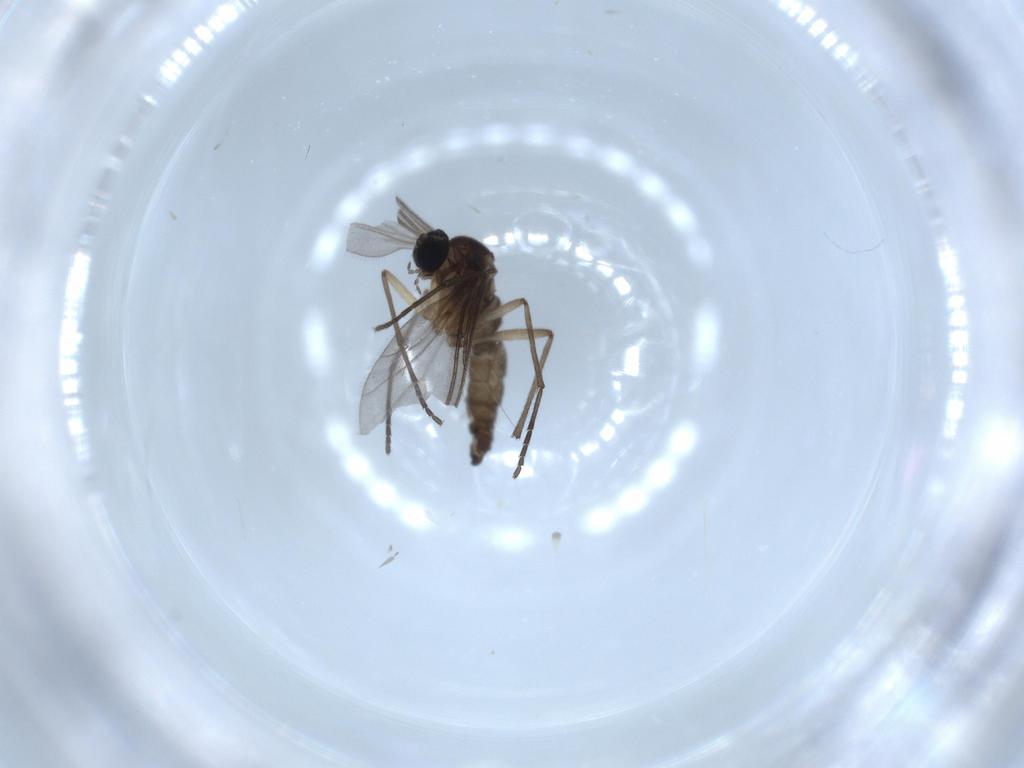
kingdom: Animalia
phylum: Arthropoda
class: Insecta
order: Diptera
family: Sciaridae
